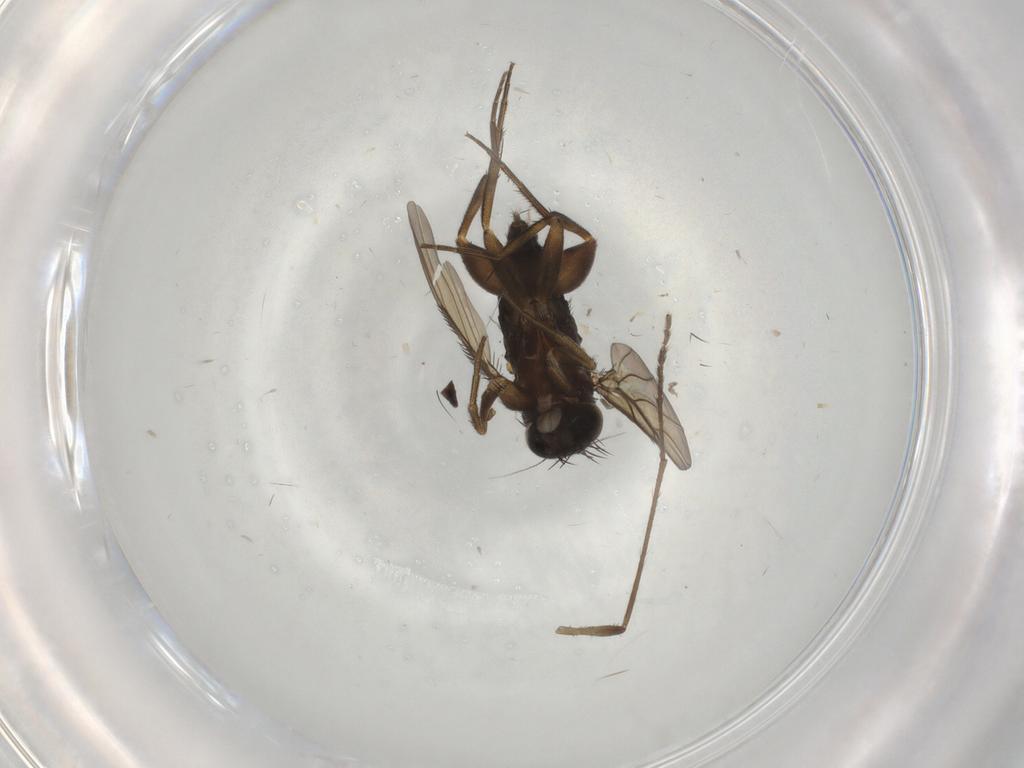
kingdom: Animalia
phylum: Arthropoda
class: Insecta
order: Diptera
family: Limoniidae
